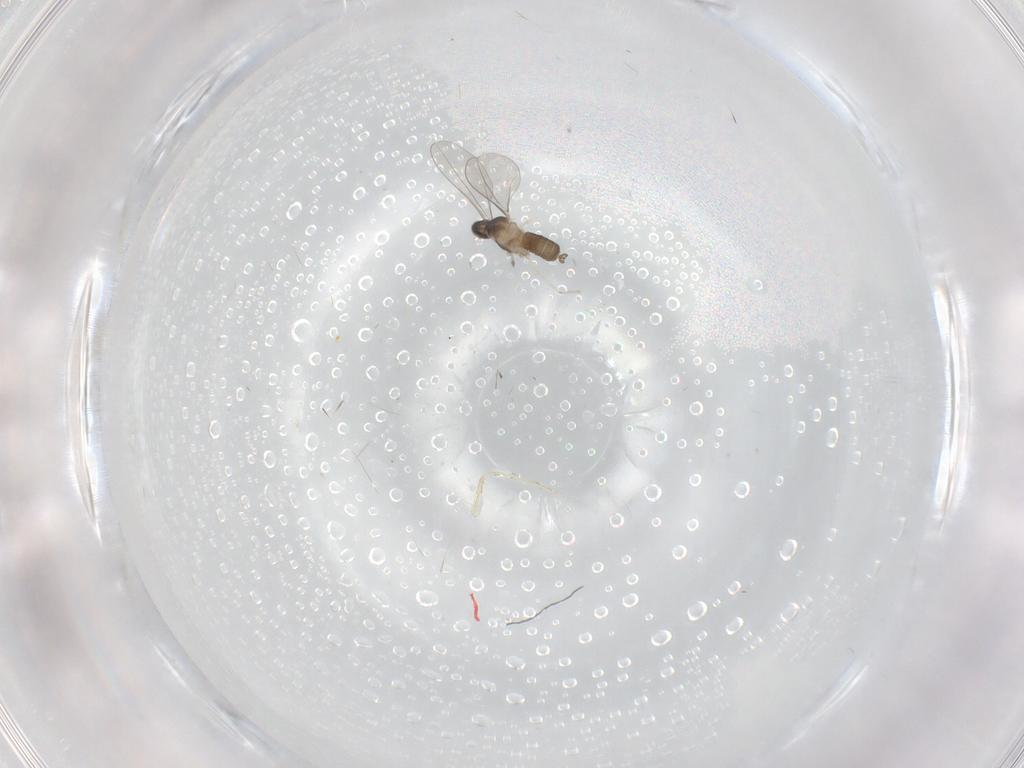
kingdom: Animalia
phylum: Arthropoda
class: Insecta
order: Diptera
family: Cecidomyiidae
